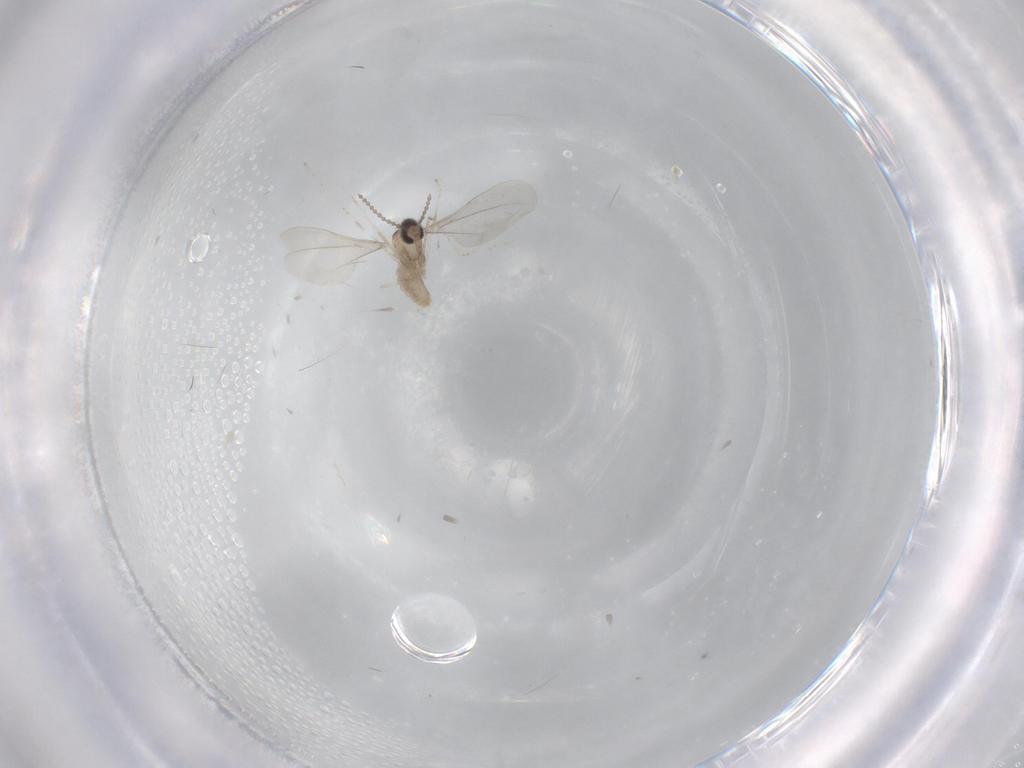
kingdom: Animalia
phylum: Arthropoda
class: Insecta
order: Diptera
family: Cecidomyiidae
